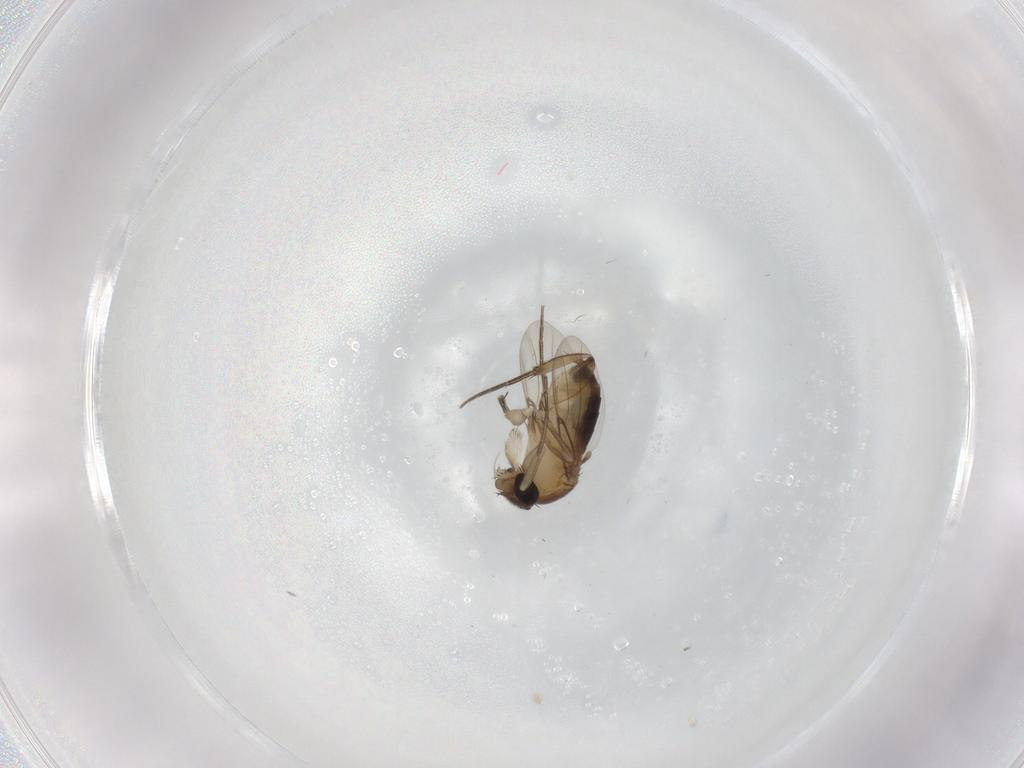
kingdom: Animalia
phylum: Arthropoda
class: Insecta
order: Diptera
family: Phoridae
